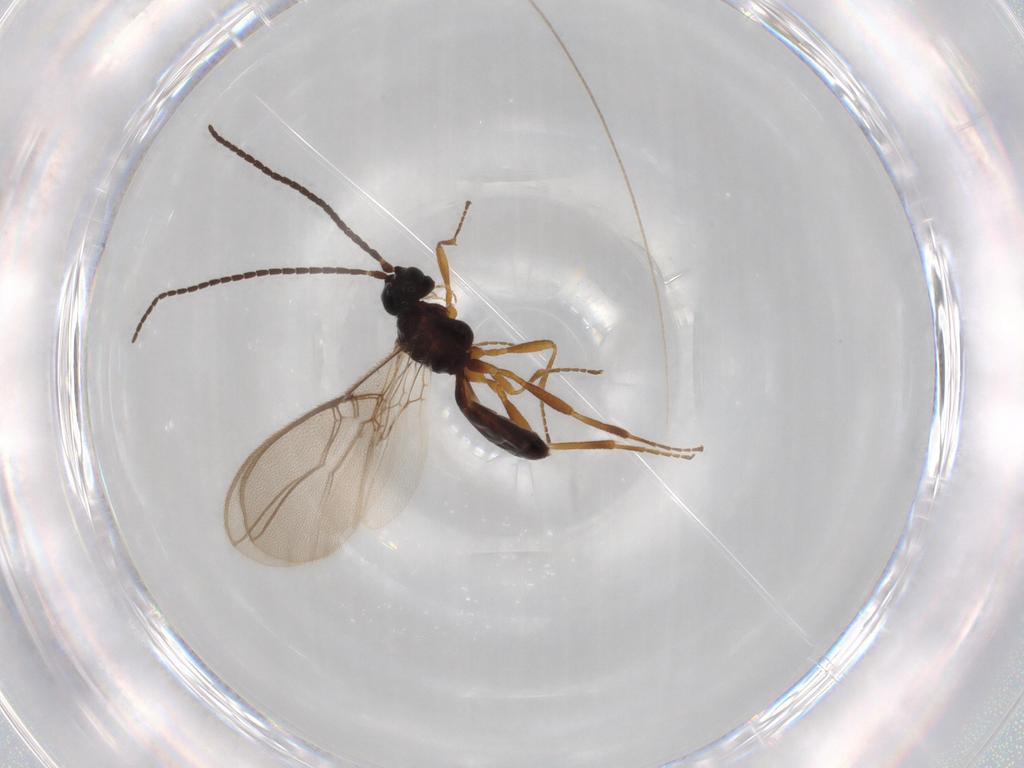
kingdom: Animalia
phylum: Arthropoda
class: Insecta
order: Hymenoptera
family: Braconidae
